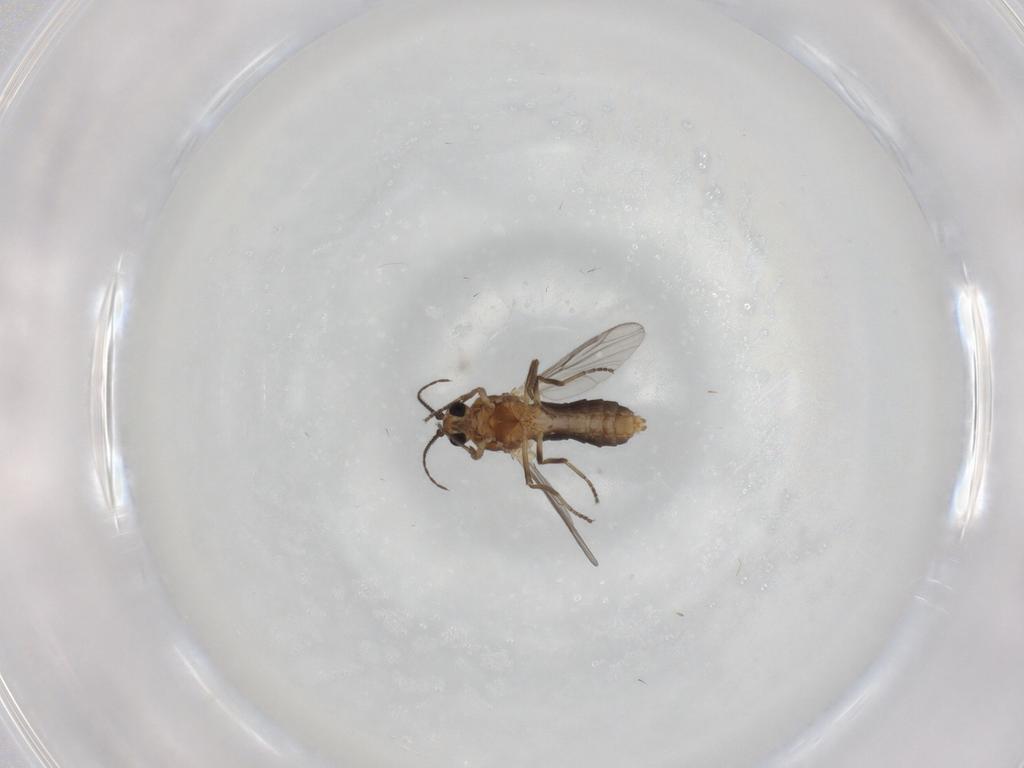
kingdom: Animalia
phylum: Arthropoda
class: Insecta
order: Diptera
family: Ceratopogonidae
